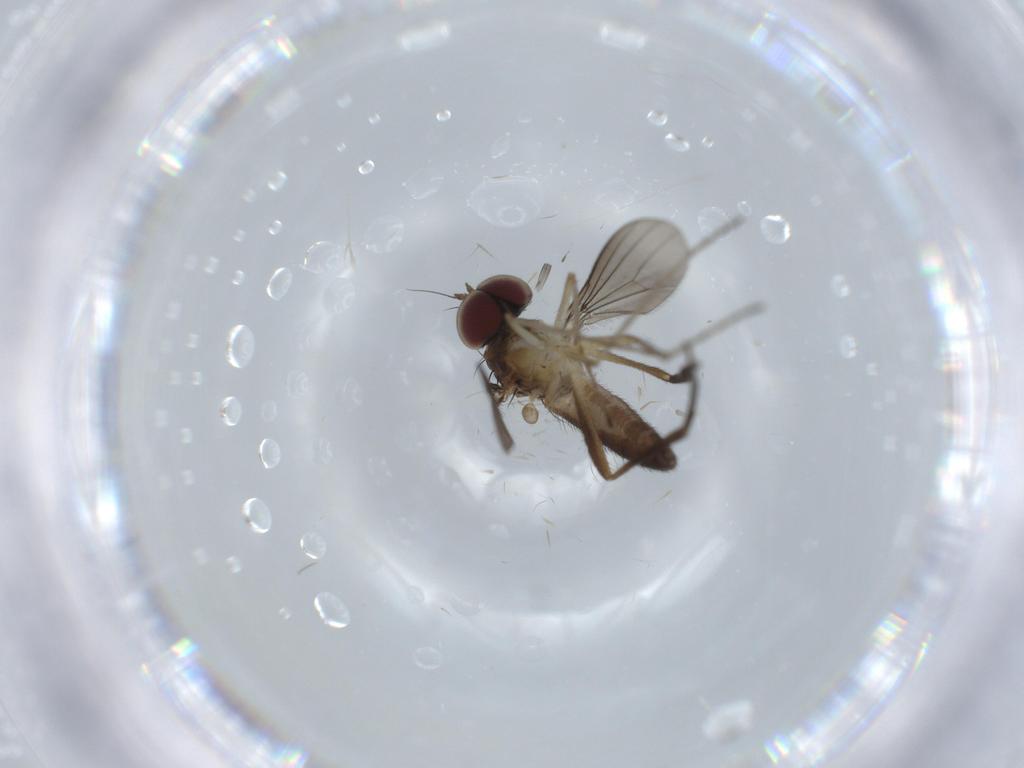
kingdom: Animalia
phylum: Arthropoda
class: Insecta
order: Diptera
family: Dolichopodidae
